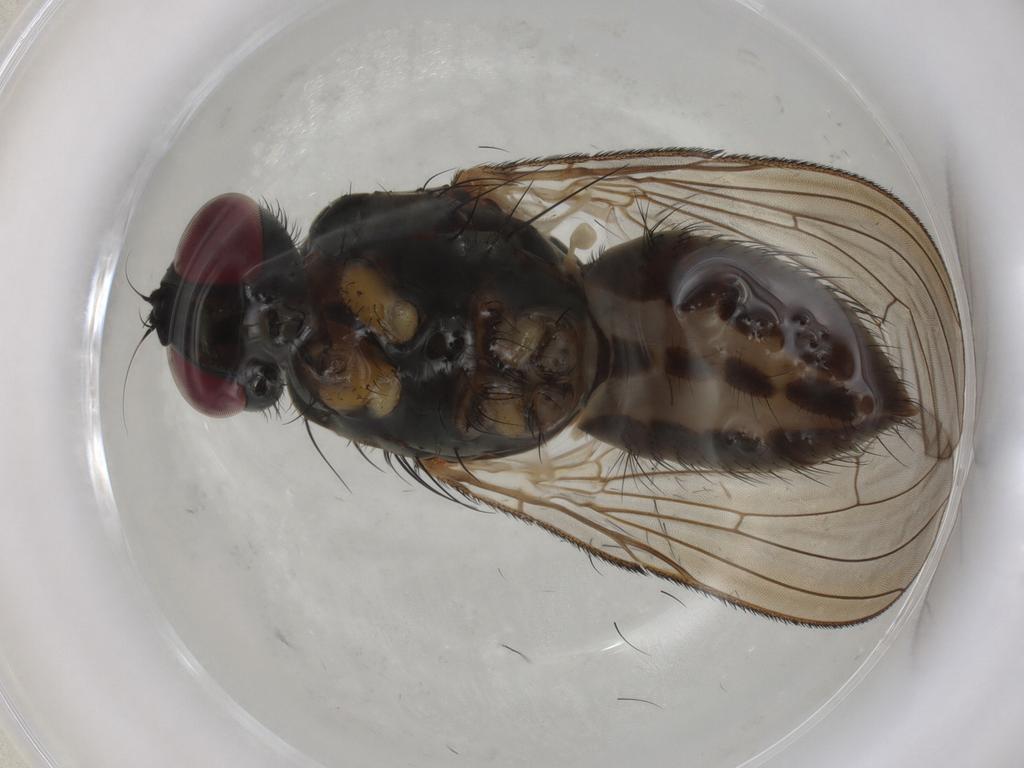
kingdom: Animalia
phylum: Arthropoda
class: Insecta
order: Diptera
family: Muscidae
